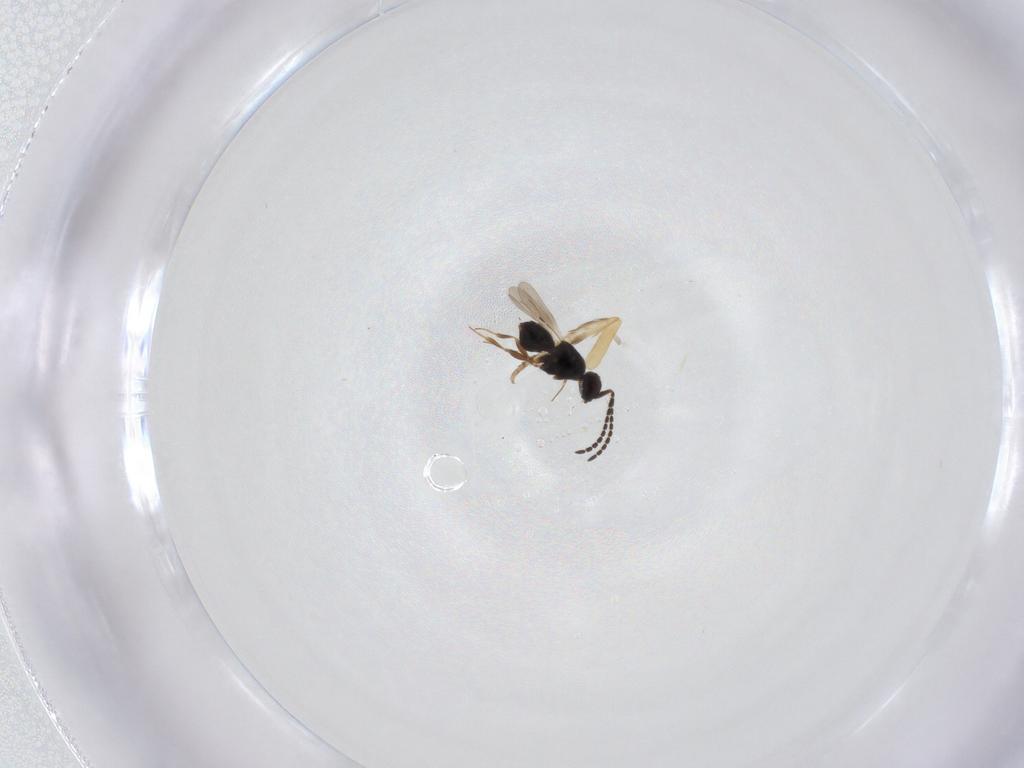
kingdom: Animalia
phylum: Arthropoda
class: Insecta
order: Hymenoptera
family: Ceraphronidae
